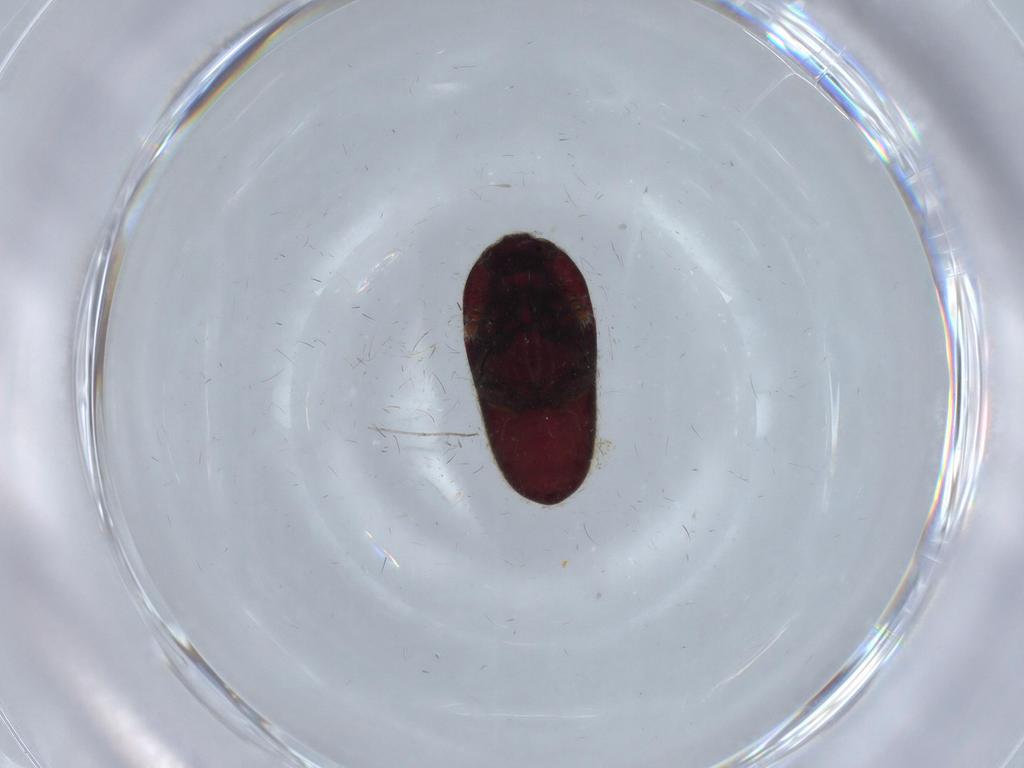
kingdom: Animalia
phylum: Arthropoda
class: Insecta
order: Coleoptera
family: Throscidae
